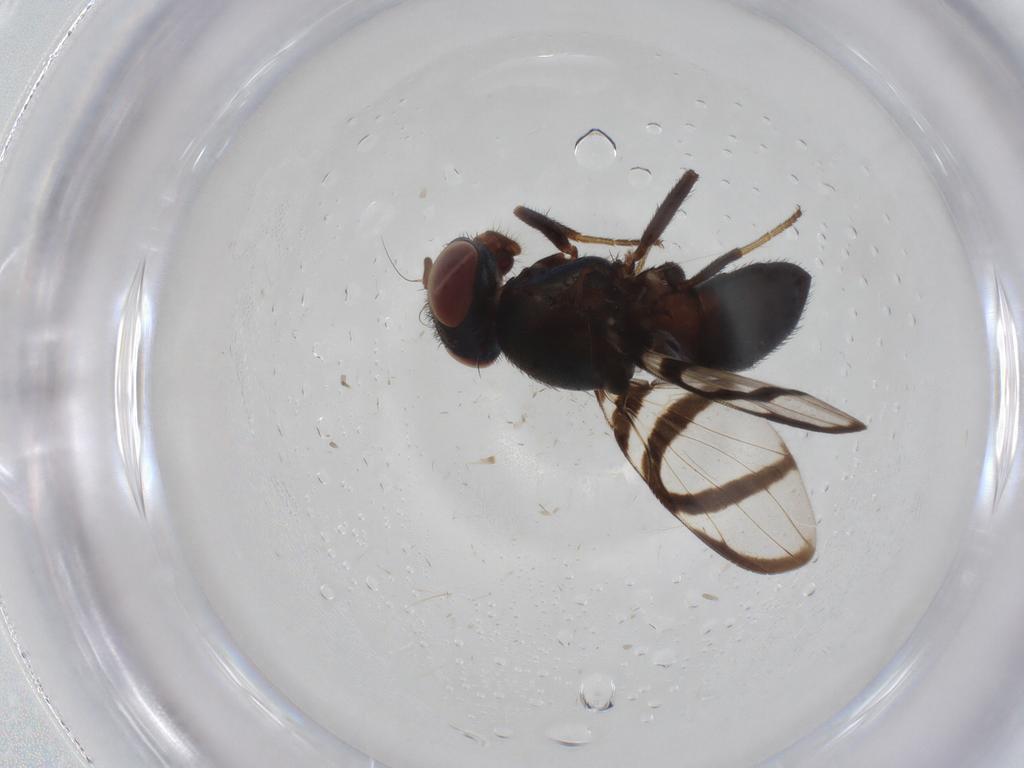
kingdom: Animalia
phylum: Arthropoda
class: Insecta
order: Diptera
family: Ulidiidae
